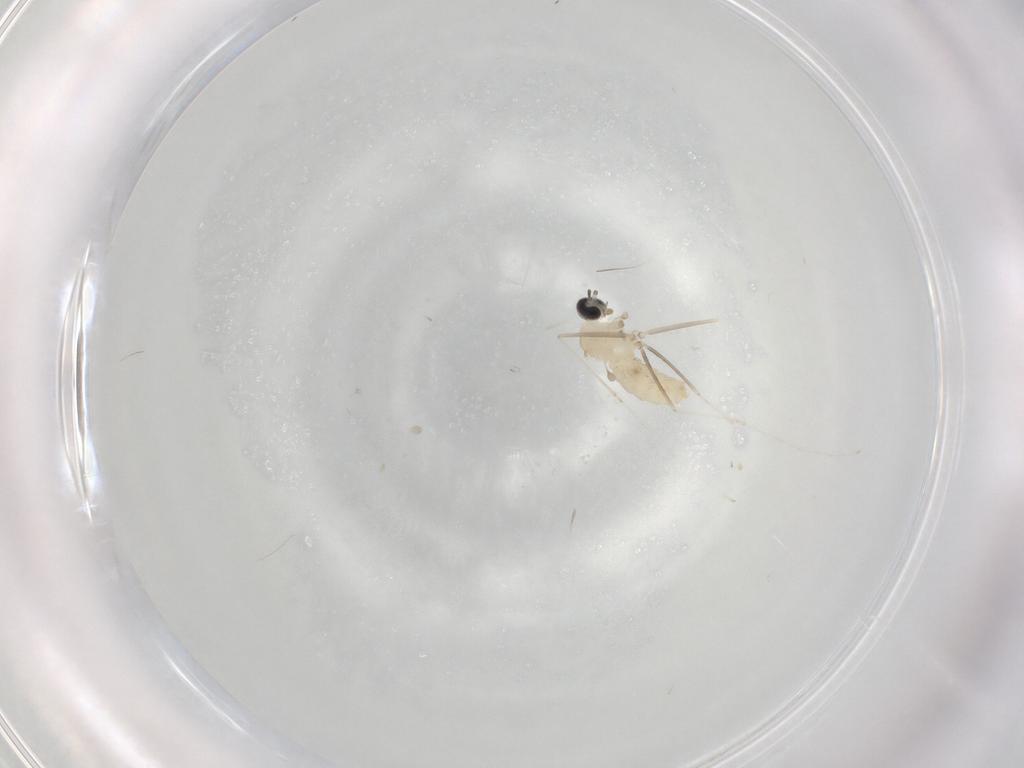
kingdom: Animalia
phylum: Arthropoda
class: Insecta
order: Diptera
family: Cecidomyiidae
